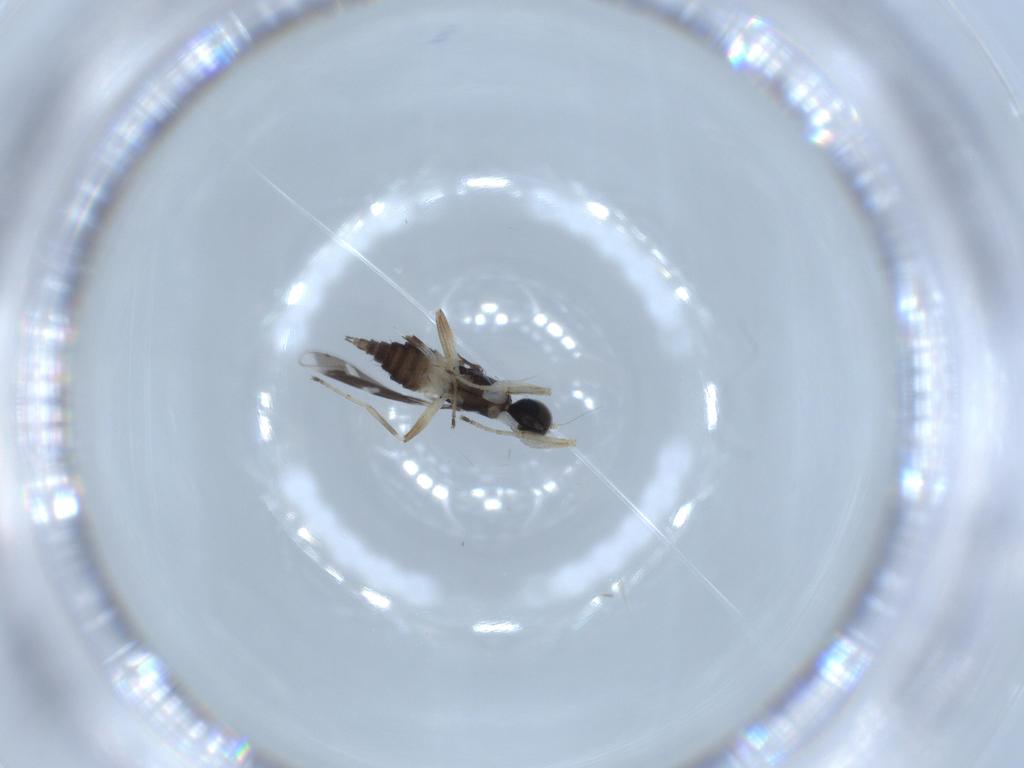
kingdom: Animalia
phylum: Arthropoda
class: Insecta
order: Diptera
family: Hybotidae
